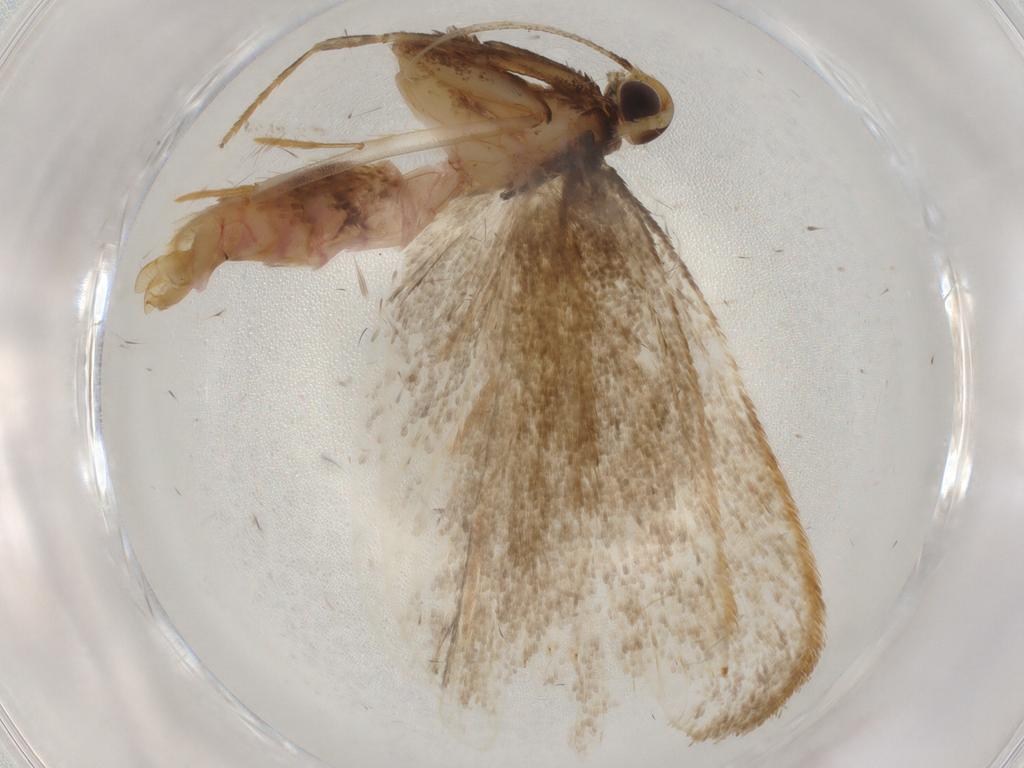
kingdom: Animalia
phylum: Arthropoda
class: Insecta
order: Lepidoptera
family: Lecithoceridae
